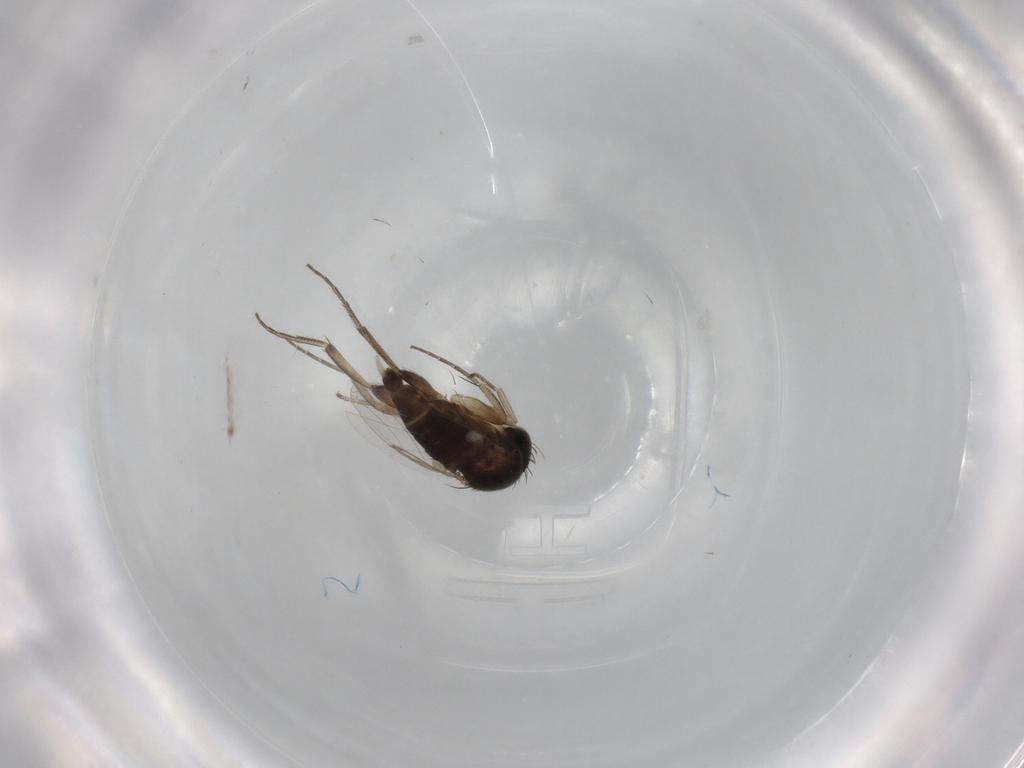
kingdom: Animalia
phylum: Arthropoda
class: Insecta
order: Diptera
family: Phoridae
